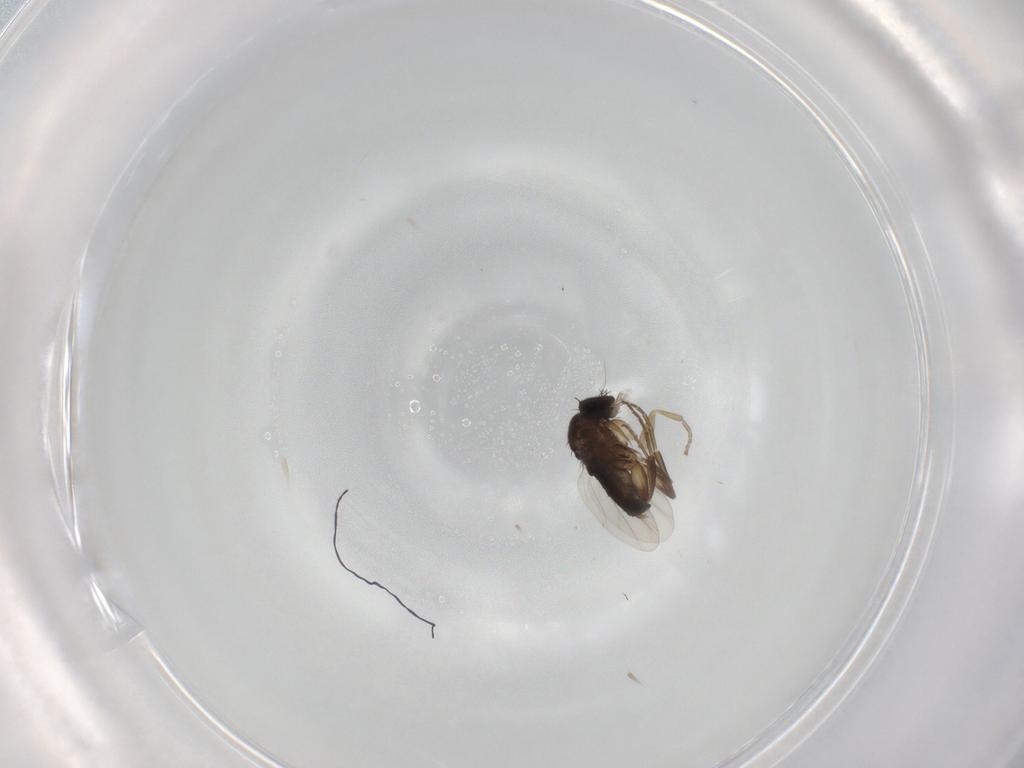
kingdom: Animalia
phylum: Arthropoda
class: Insecta
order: Diptera
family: Phoridae
